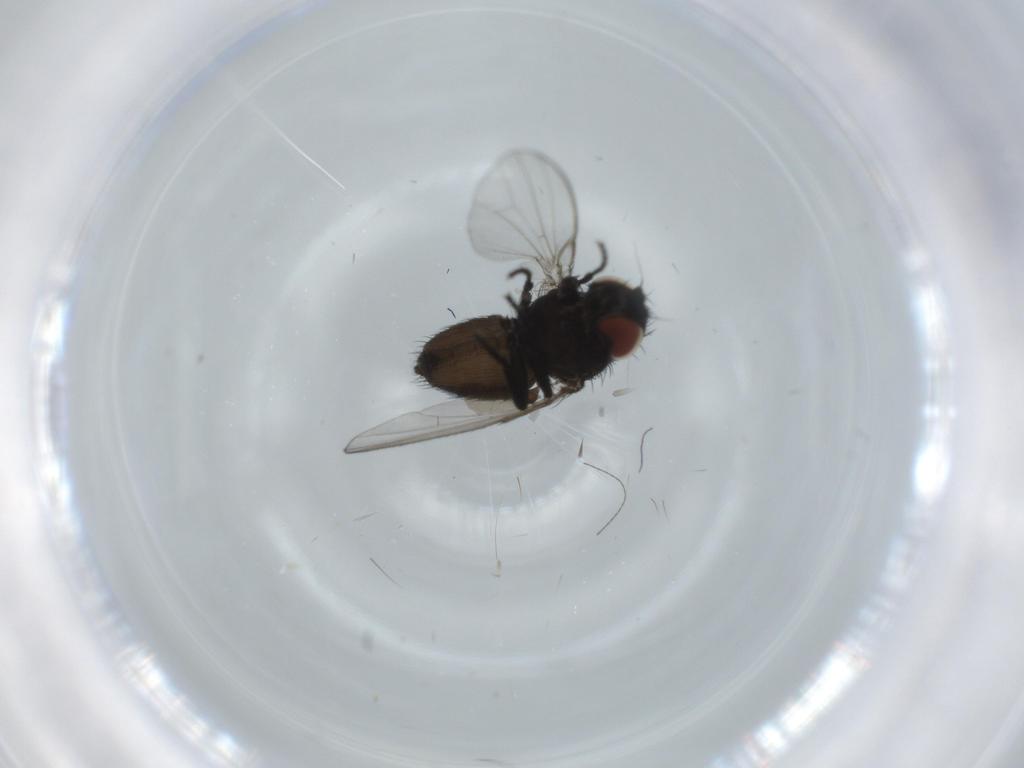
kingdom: Animalia
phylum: Arthropoda
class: Insecta
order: Diptera
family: Milichiidae
